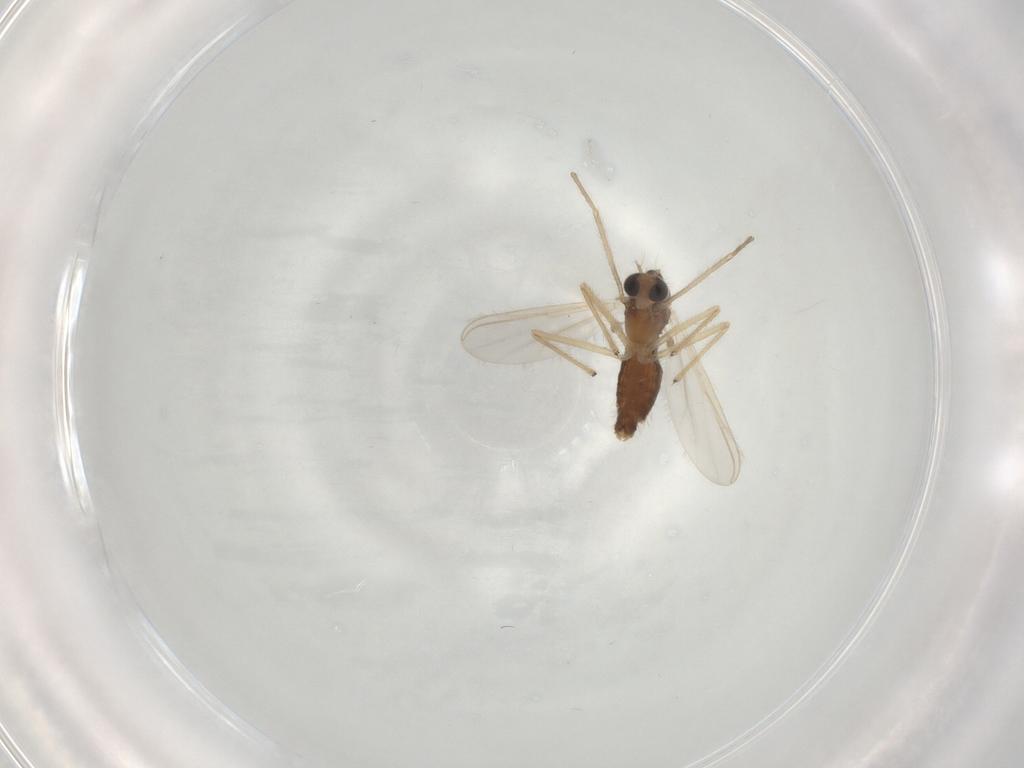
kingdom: Animalia
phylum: Arthropoda
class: Insecta
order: Diptera
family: Chironomidae
